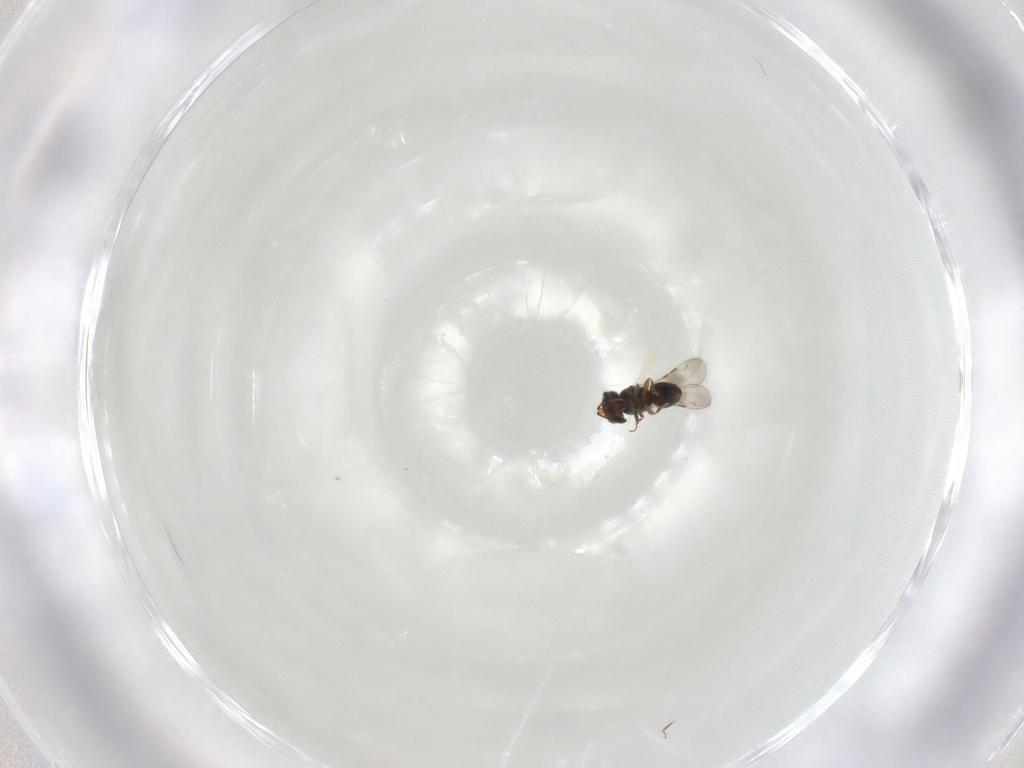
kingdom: Animalia
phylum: Arthropoda
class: Insecta
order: Hymenoptera
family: Ceraphronidae
